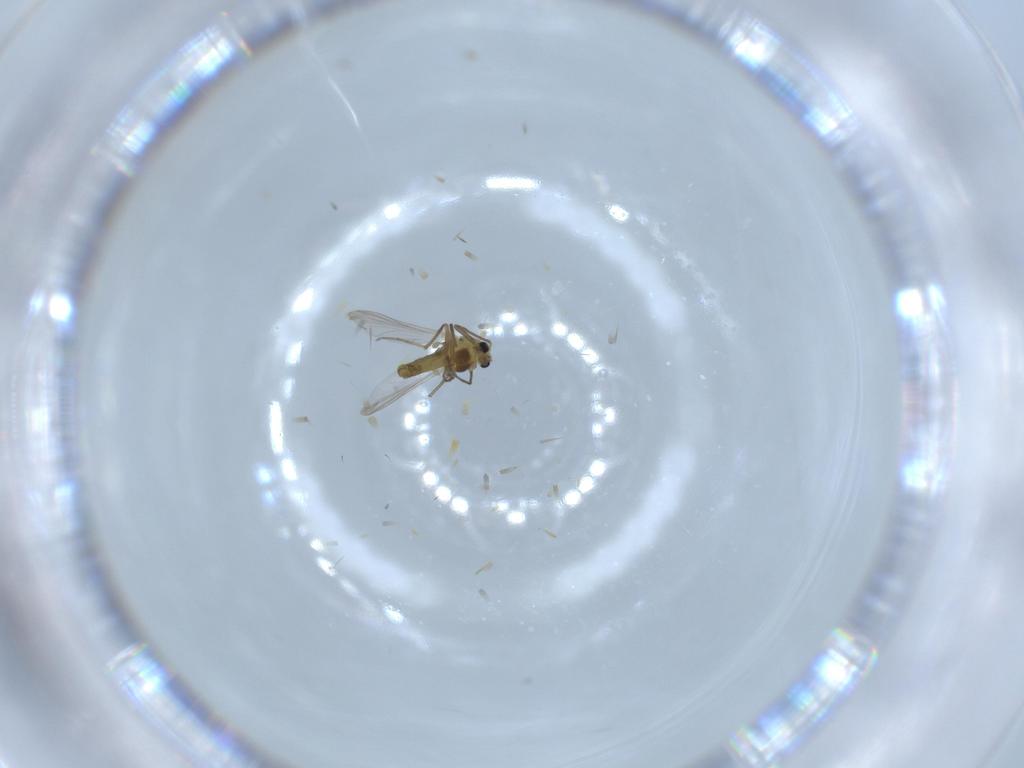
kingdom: Animalia
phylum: Arthropoda
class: Insecta
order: Diptera
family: Chironomidae
